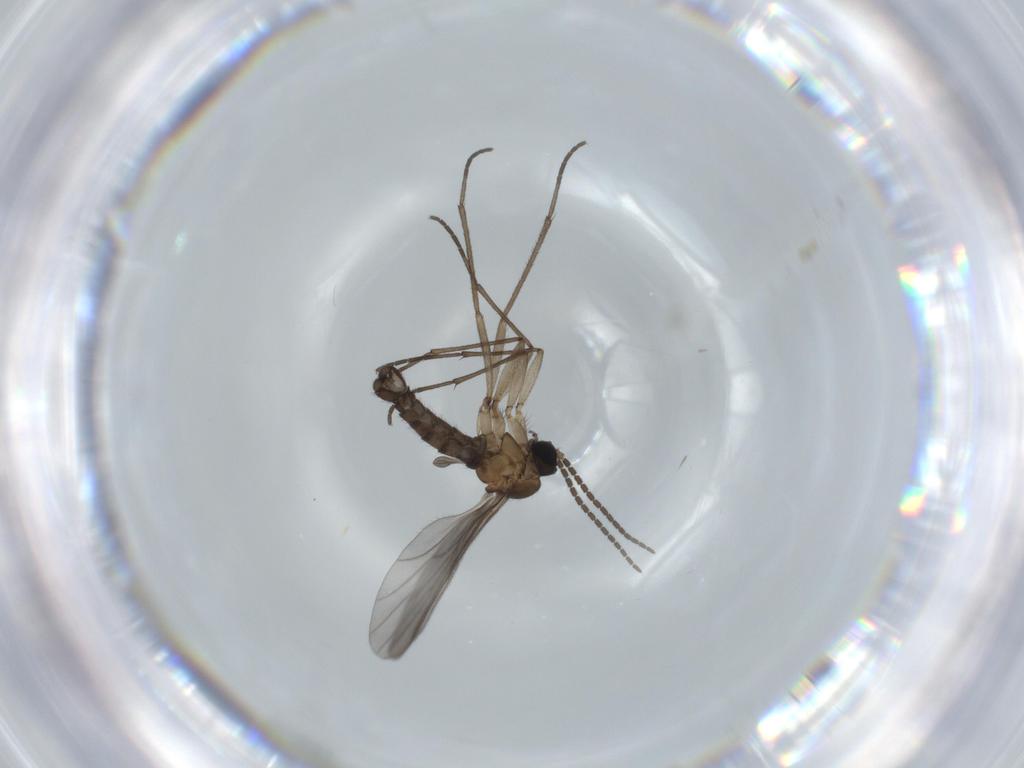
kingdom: Animalia
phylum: Arthropoda
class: Insecta
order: Diptera
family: Sciaridae
